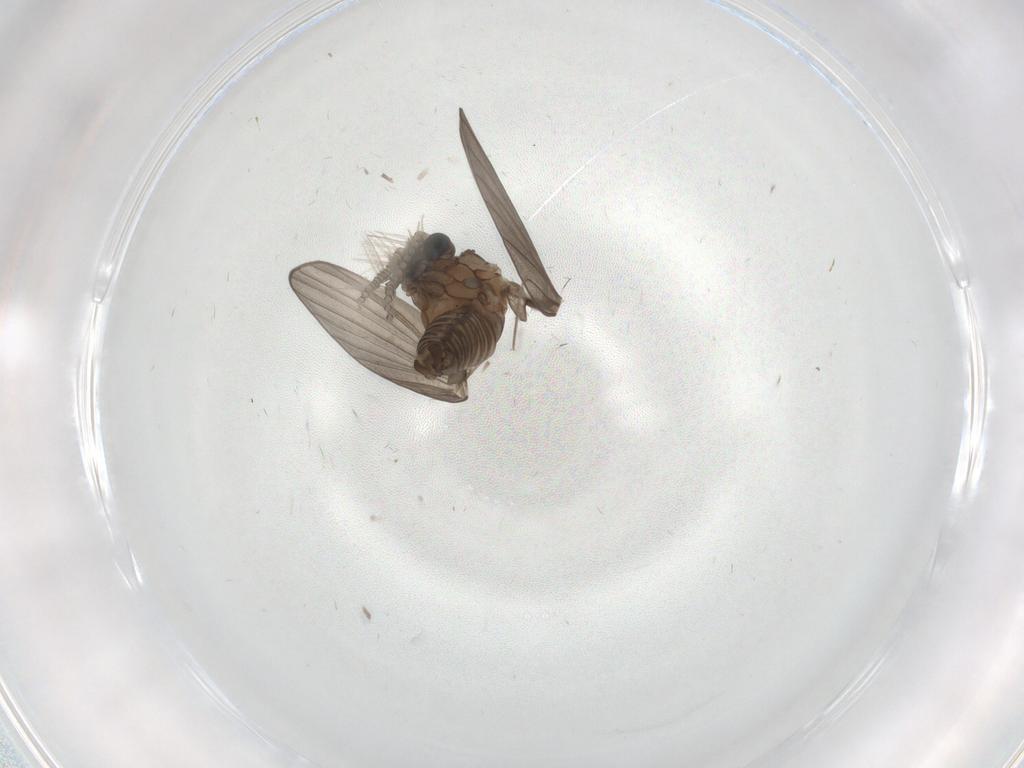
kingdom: Animalia
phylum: Arthropoda
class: Insecta
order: Diptera
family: Psychodidae
